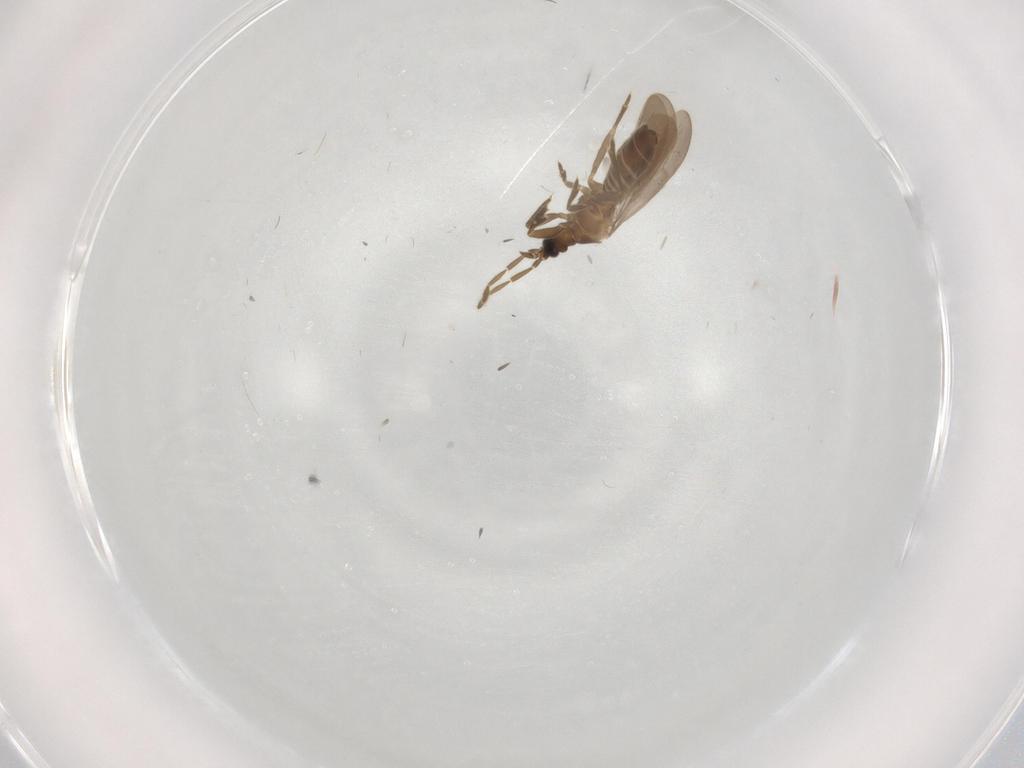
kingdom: Animalia
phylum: Arthropoda
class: Insecta
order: Hemiptera
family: Enicocephalidae
